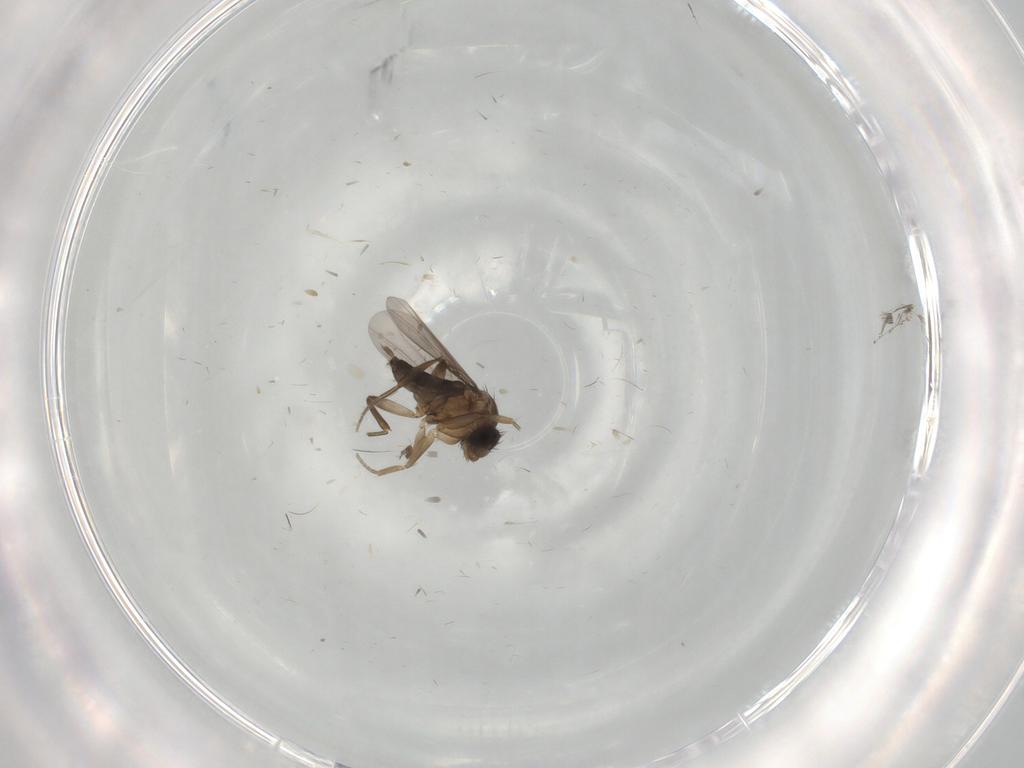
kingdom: Animalia
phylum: Arthropoda
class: Insecta
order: Diptera
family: Phoridae
